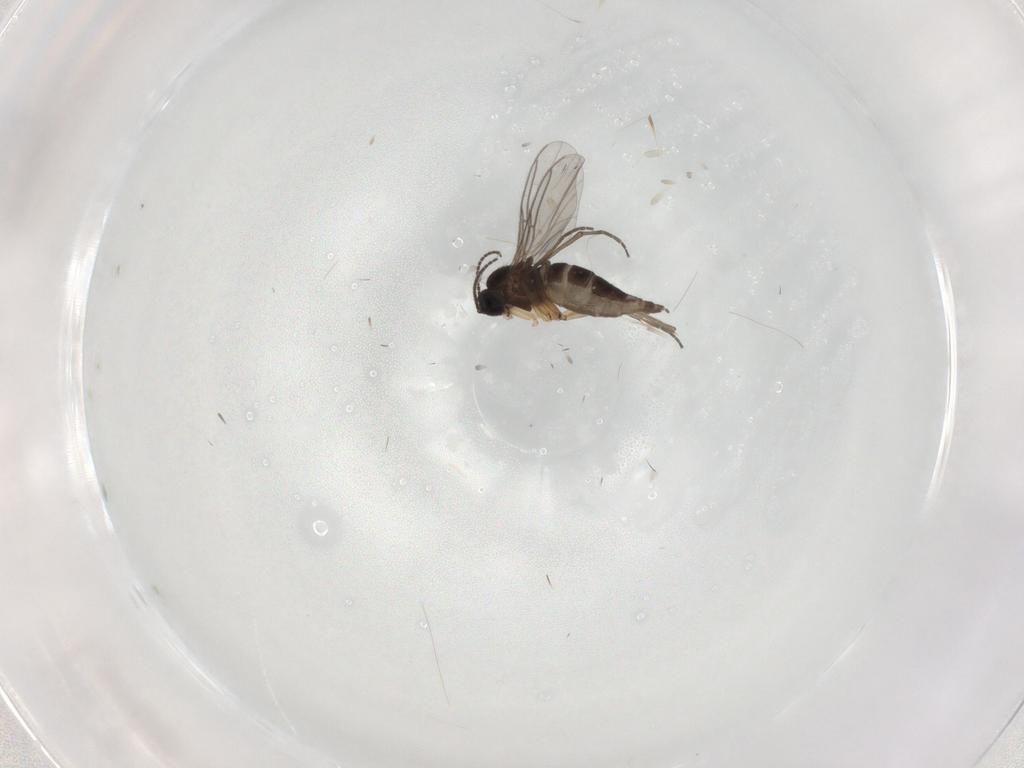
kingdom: Animalia
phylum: Arthropoda
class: Insecta
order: Diptera
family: Sciaridae
